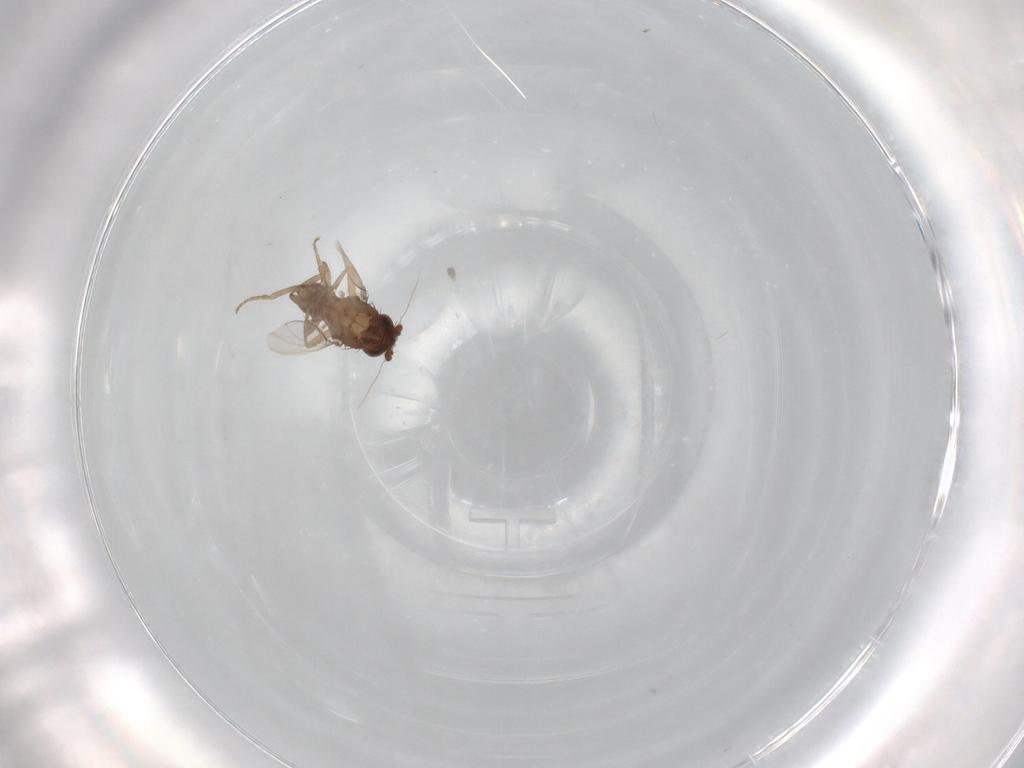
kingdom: Animalia
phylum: Arthropoda
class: Insecta
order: Diptera
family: Sphaeroceridae
